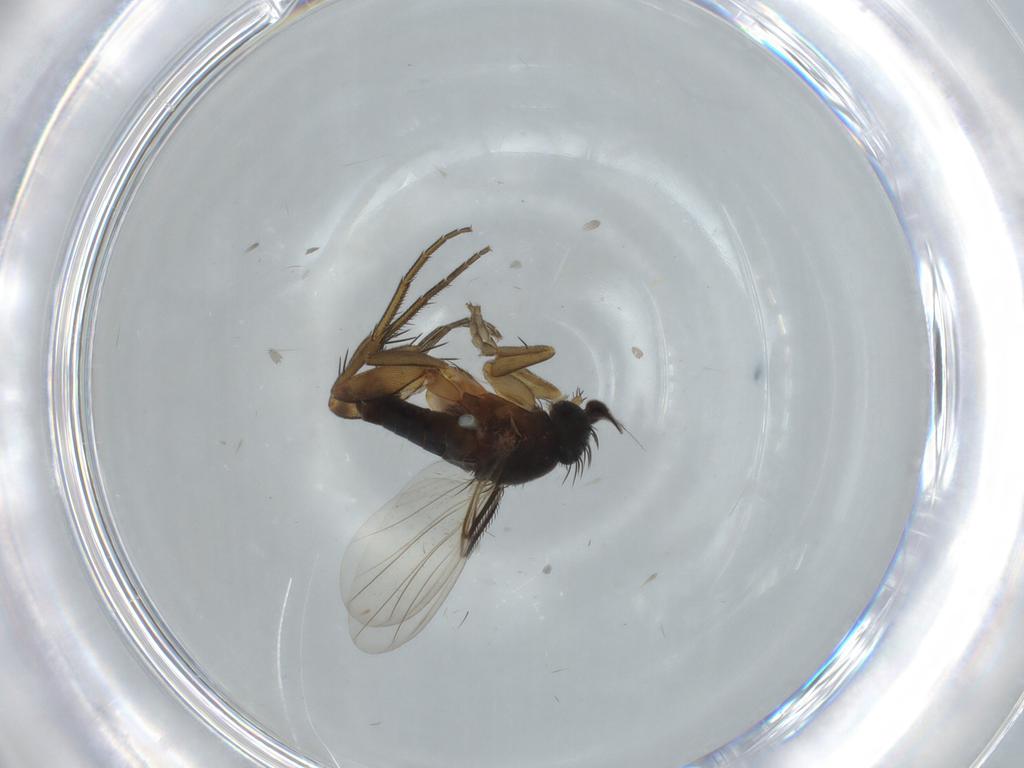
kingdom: Animalia
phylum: Arthropoda
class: Insecta
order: Diptera
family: Phoridae
